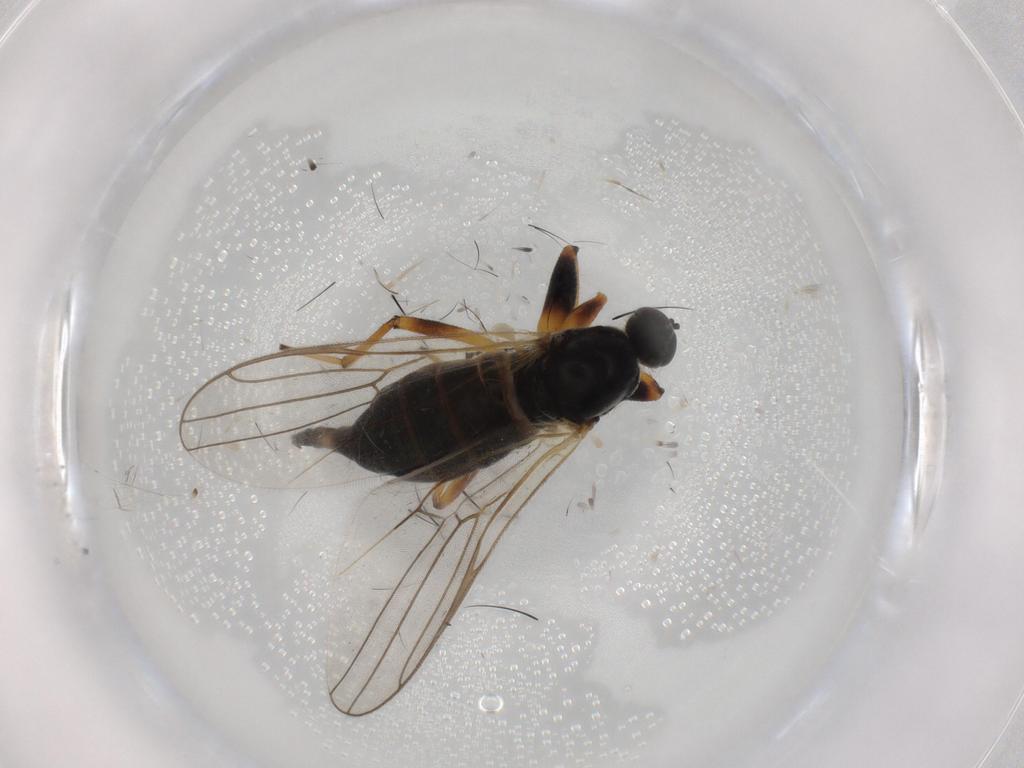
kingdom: Animalia
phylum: Arthropoda
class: Insecta
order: Diptera
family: Hybotidae
